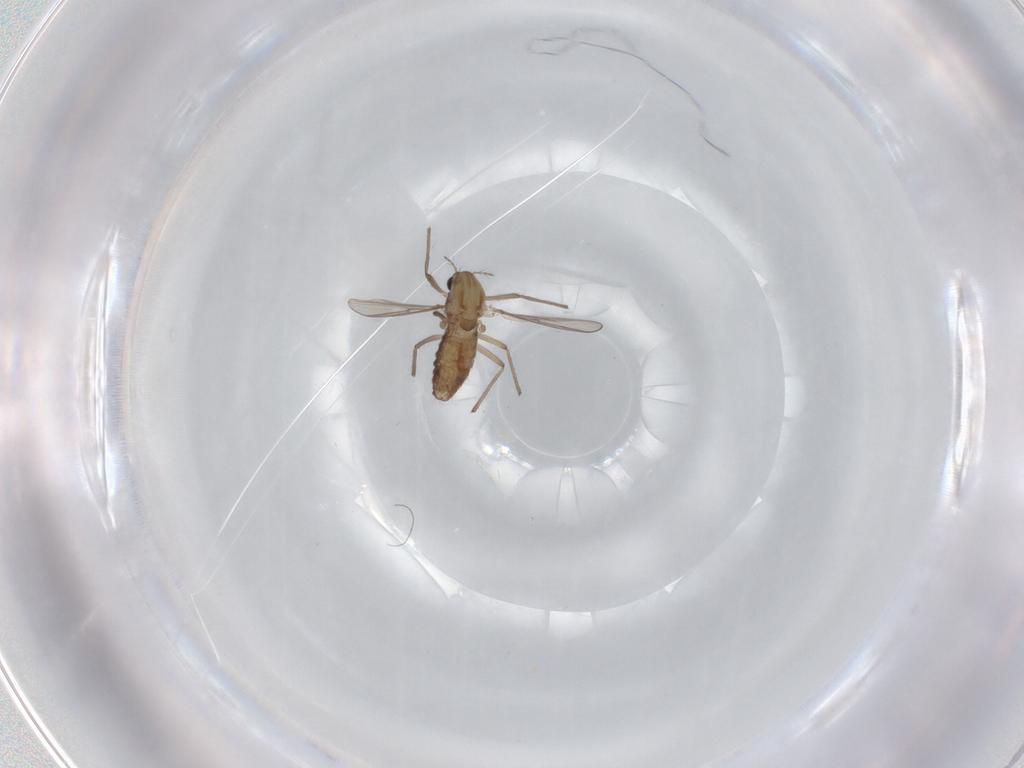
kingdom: Animalia
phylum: Arthropoda
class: Insecta
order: Diptera
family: Chironomidae
